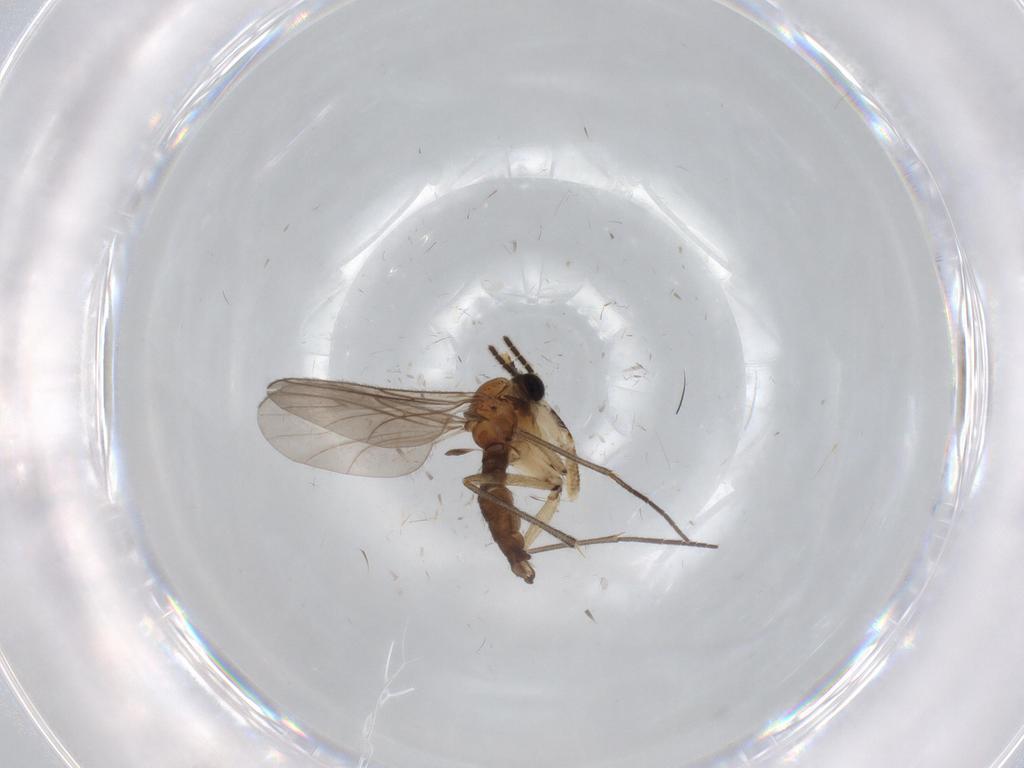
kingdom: Animalia
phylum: Arthropoda
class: Insecta
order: Diptera
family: Sciaridae
